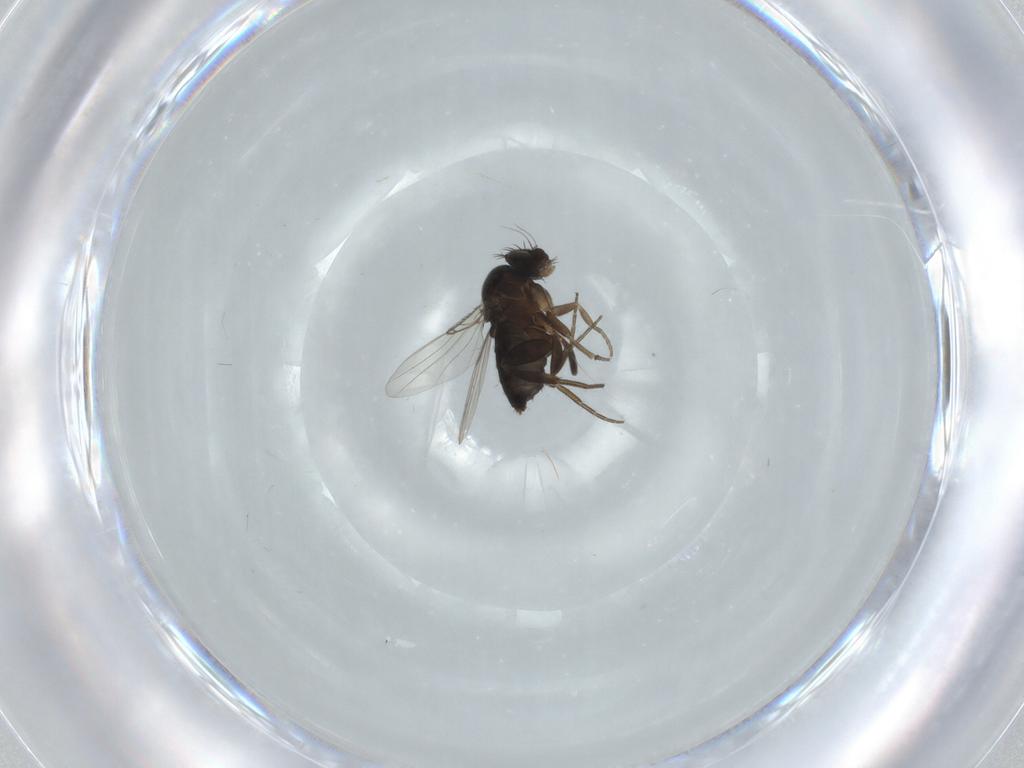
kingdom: Animalia
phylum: Arthropoda
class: Insecta
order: Diptera
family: Phoridae
